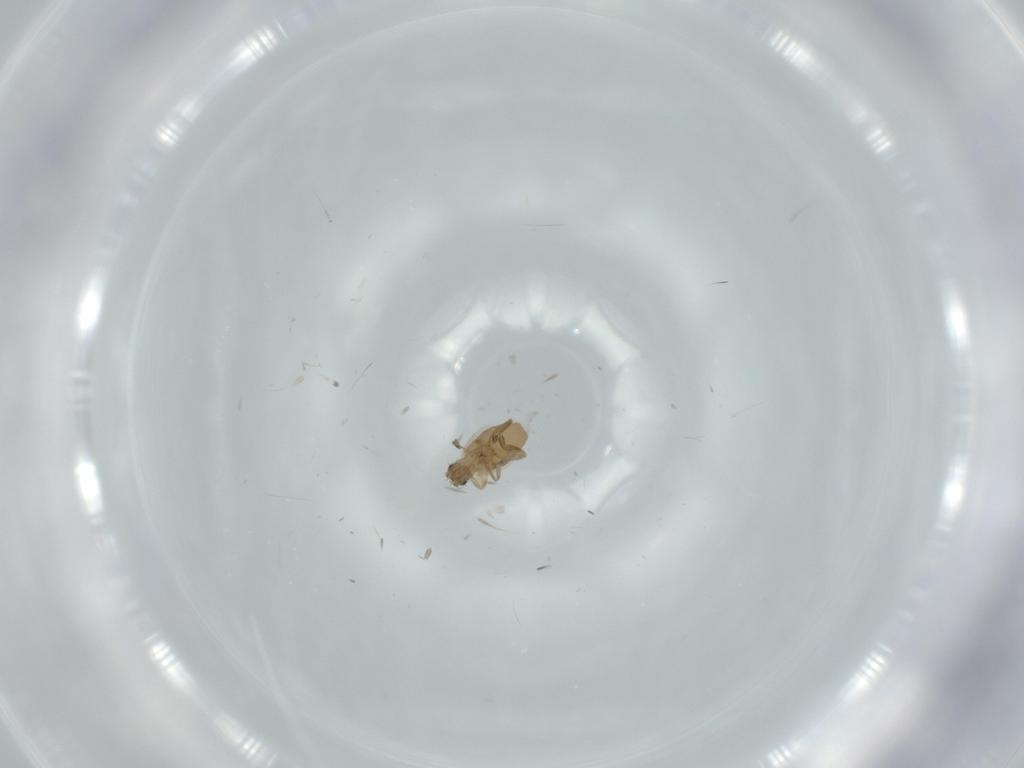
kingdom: Animalia
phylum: Arthropoda
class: Insecta
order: Diptera
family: Phoridae
